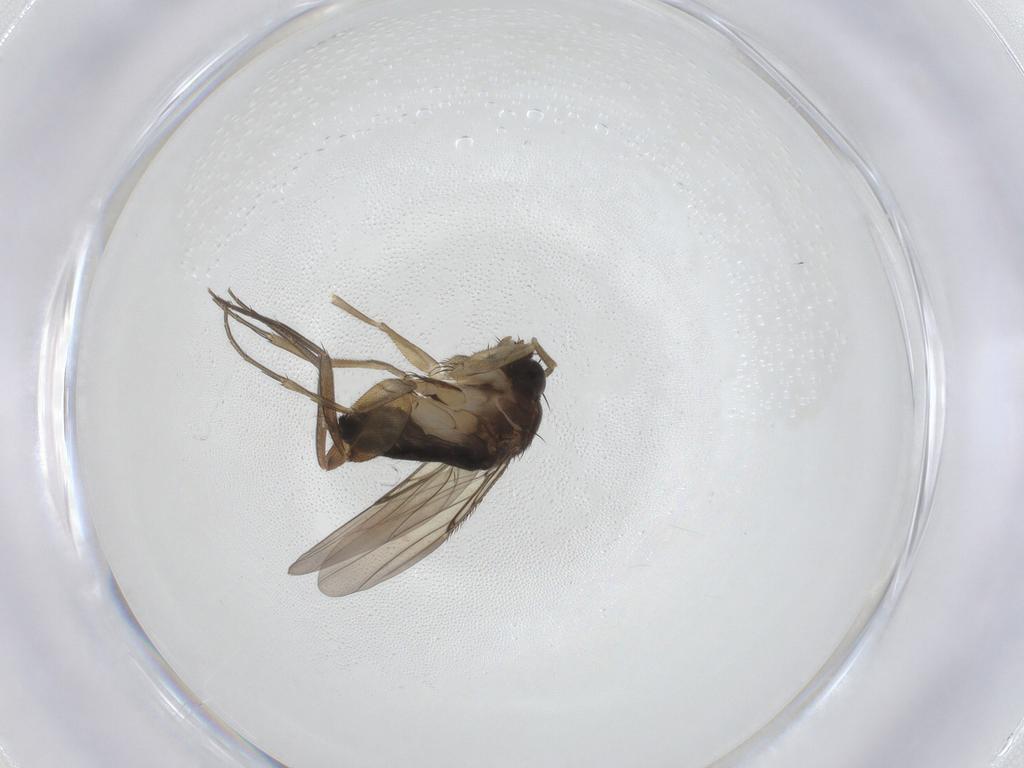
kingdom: Animalia
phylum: Arthropoda
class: Insecta
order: Diptera
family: Phoridae
